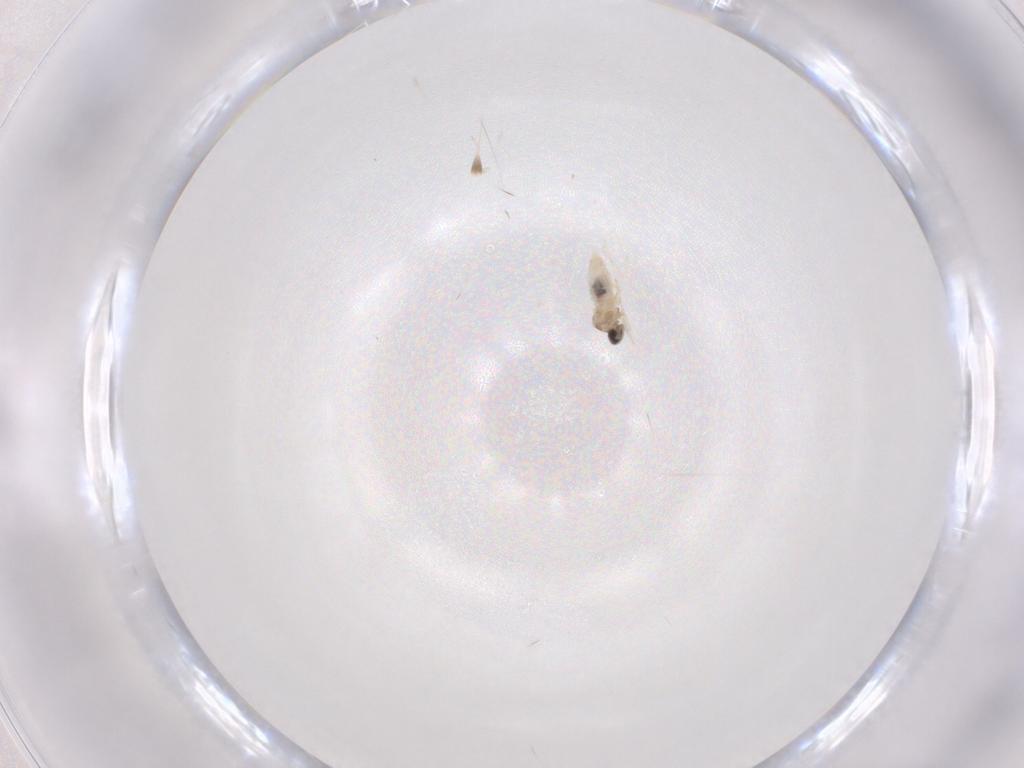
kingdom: Animalia
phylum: Arthropoda
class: Insecta
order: Diptera
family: Cecidomyiidae
